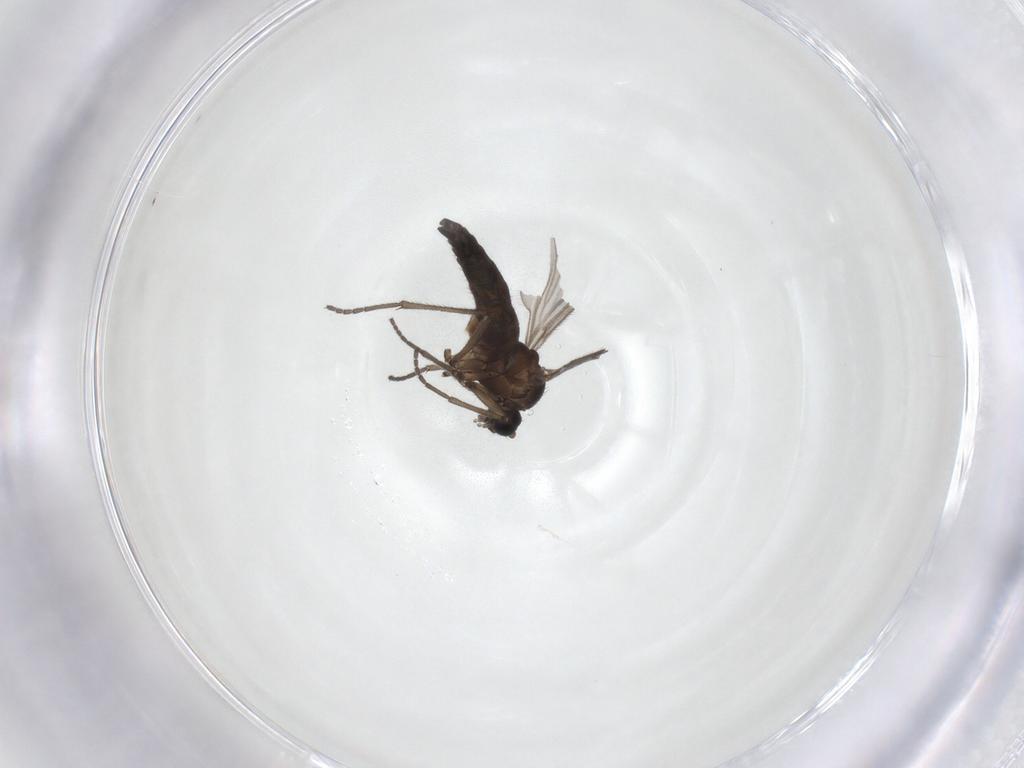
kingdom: Animalia
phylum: Arthropoda
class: Insecta
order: Diptera
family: Sciaridae
